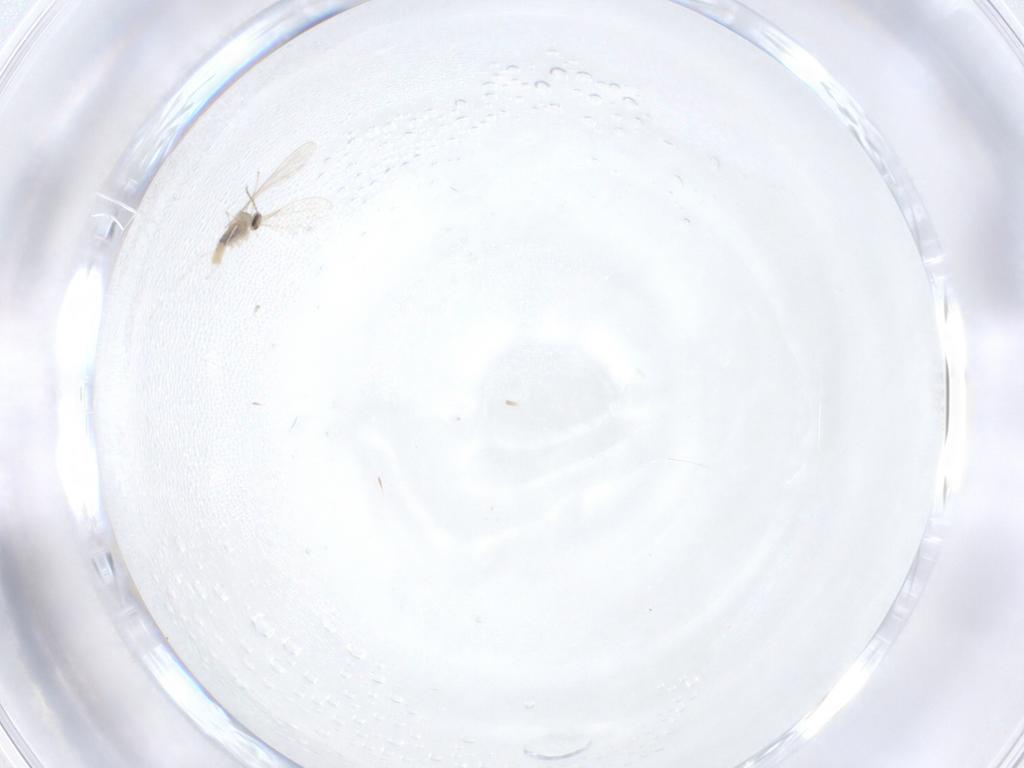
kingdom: Animalia
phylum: Arthropoda
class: Insecta
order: Diptera
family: Cecidomyiidae
